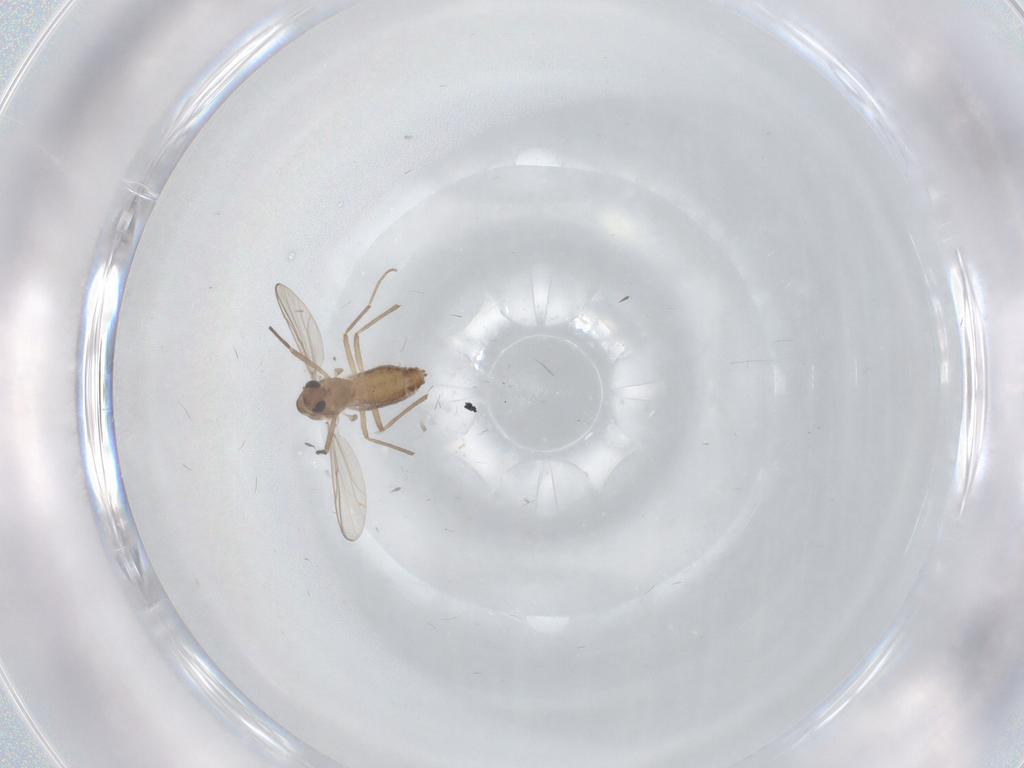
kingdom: Animalia
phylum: Arthropoda
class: Insecta
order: Diptera
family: Chironomidae
